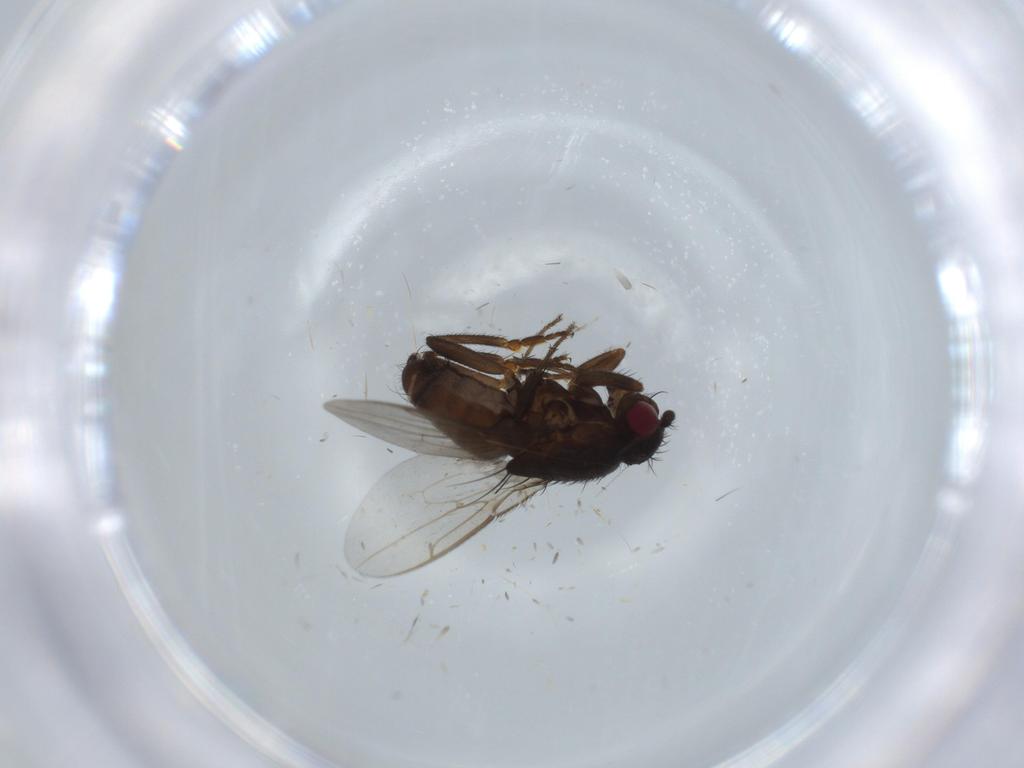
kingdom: Animalia
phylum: Arthropoda
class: Insecta
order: Diptera
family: Sciaridae
